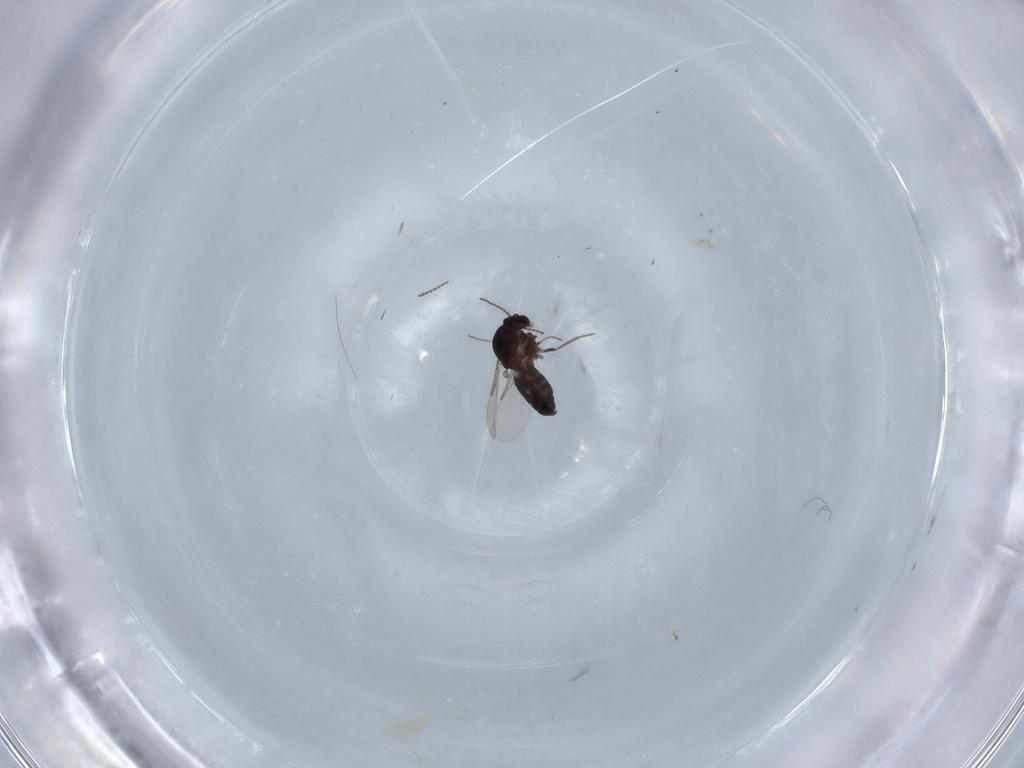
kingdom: Animalia
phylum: Arthropoda
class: Insecta
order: Diptera
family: Ceratopogonidae
